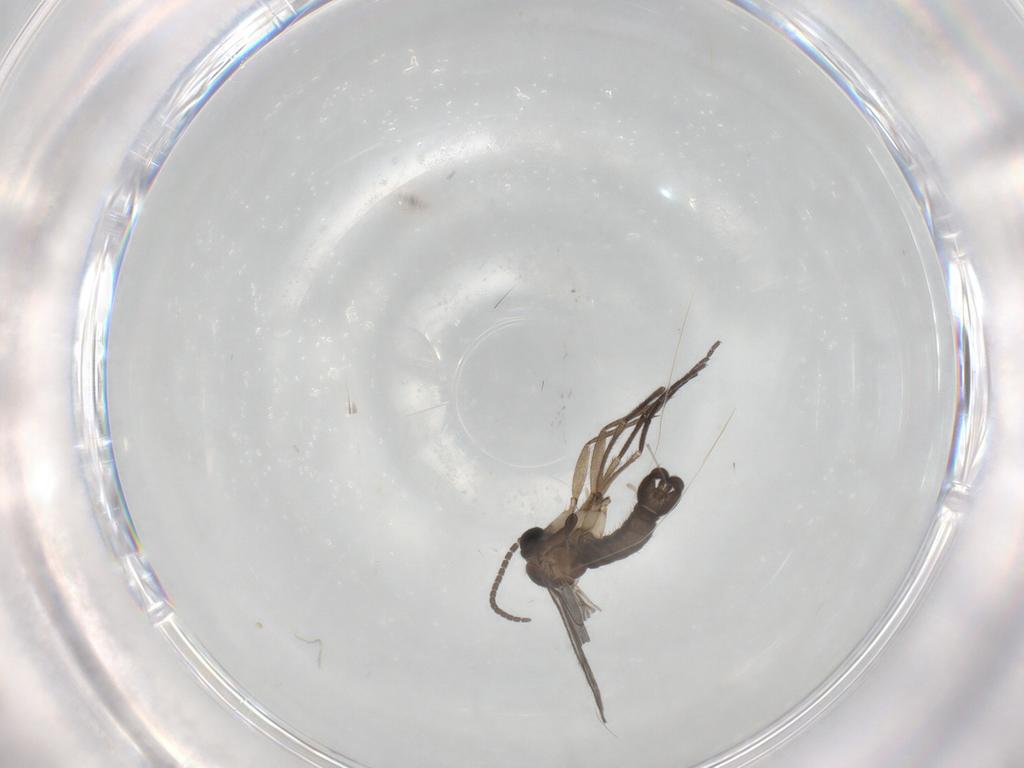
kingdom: Animalia
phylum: Arthropoda
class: Insecta
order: Diptera
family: Sciaridae
